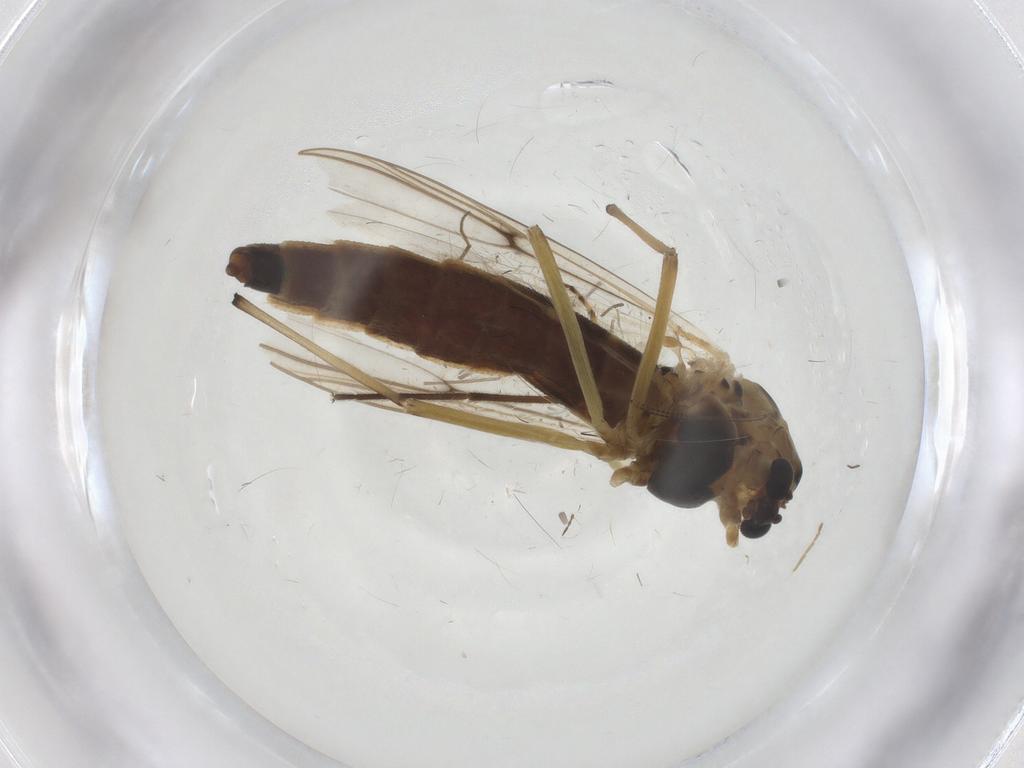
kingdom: Animalia
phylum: Arthropoda
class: Insecta
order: Diptera
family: Chironomidae
